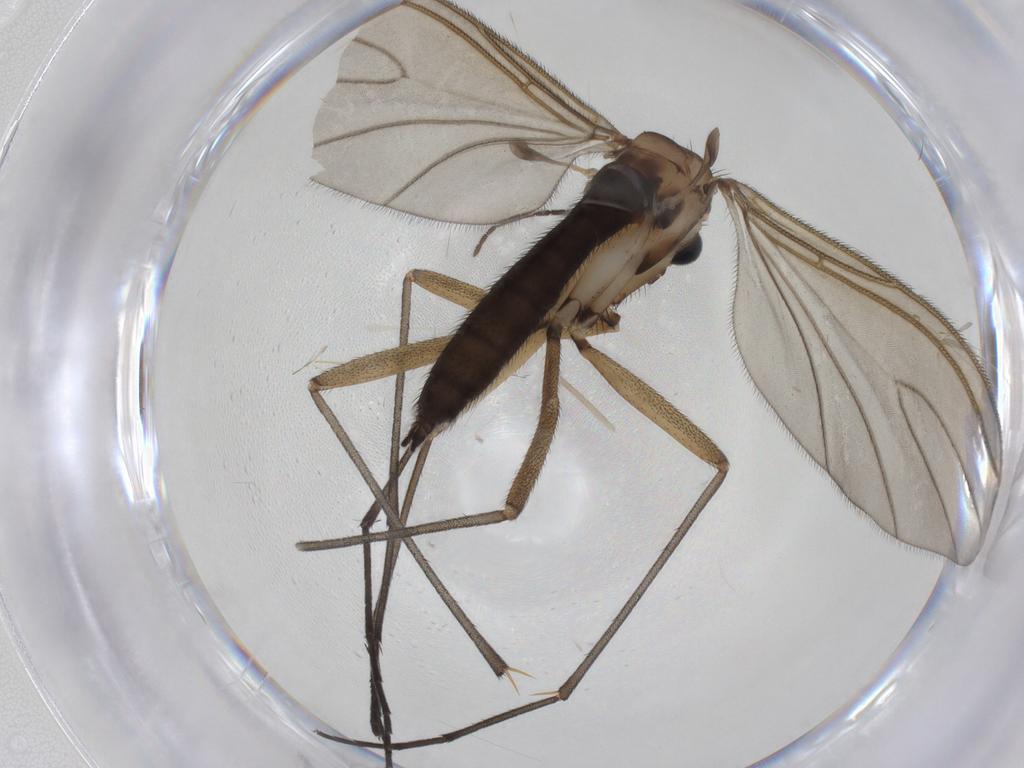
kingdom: Animalia
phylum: Arthropoda
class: Insecta
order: Diptera
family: Sciaridae
